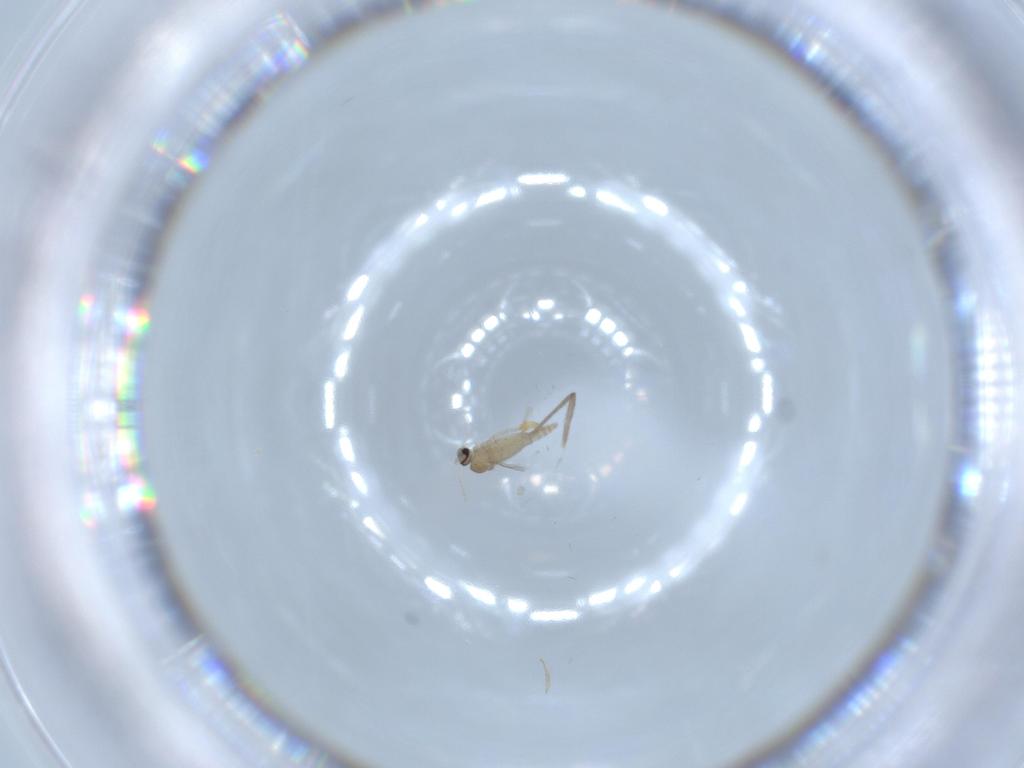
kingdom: Animalia
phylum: Arthropoda
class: Insecta
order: Diptera
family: Cecidomyiidae
